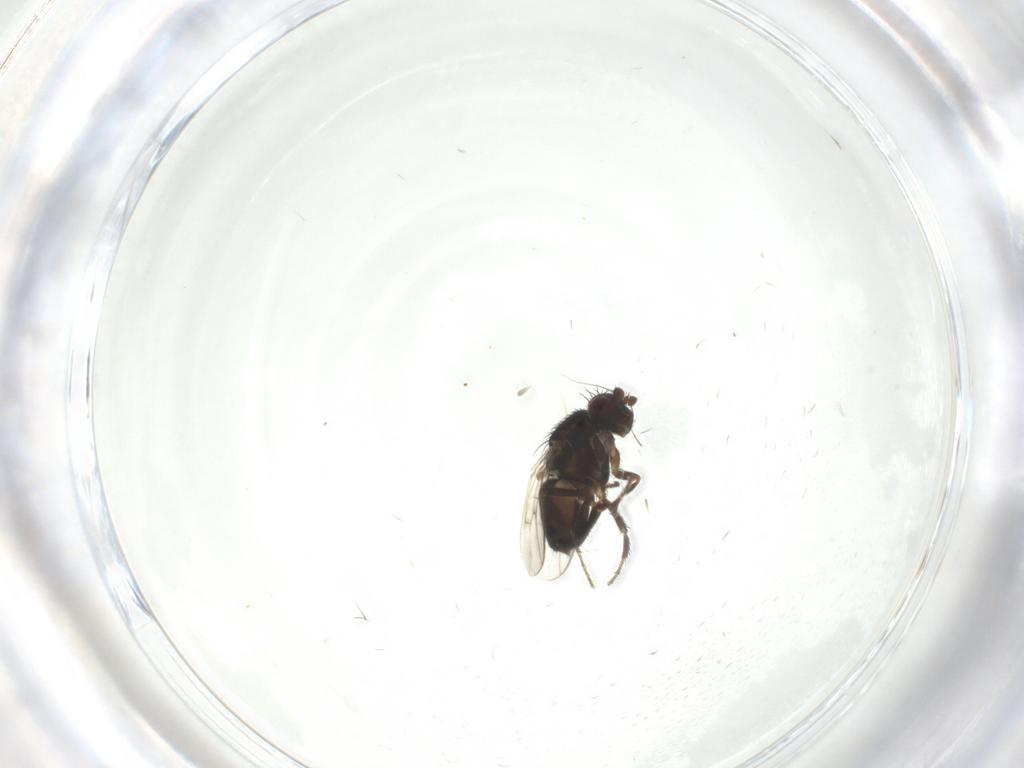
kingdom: Animalia
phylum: Arthropoda
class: Insecta
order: Diptera
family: Sphaeroceridae
